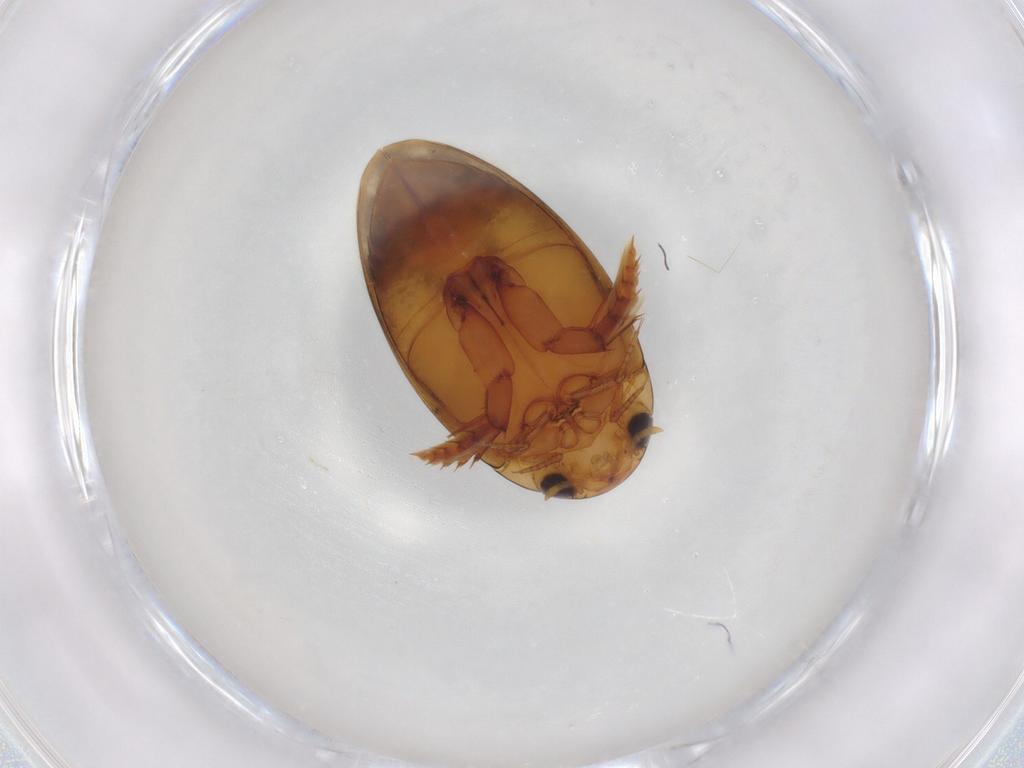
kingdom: Animalia
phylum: Arthropoda
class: Insecta
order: Coleoptera
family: Dytiscidae
